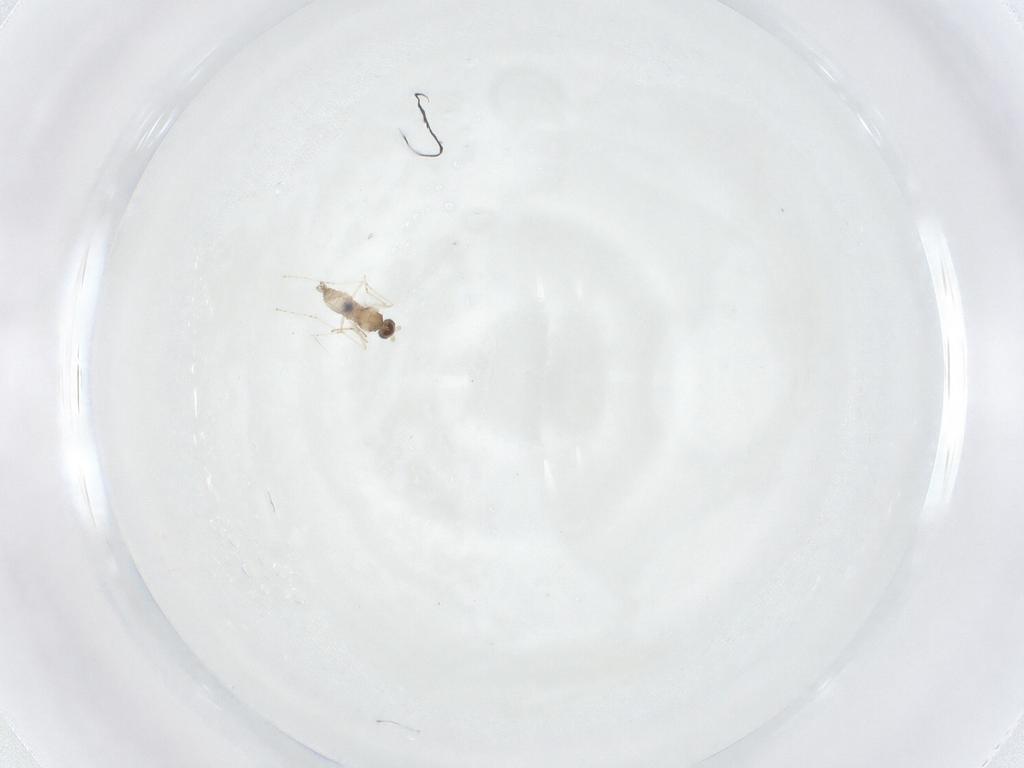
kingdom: Animalia
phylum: Arthropoda
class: Insecta
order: Diptera
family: Cecidomyiidae
